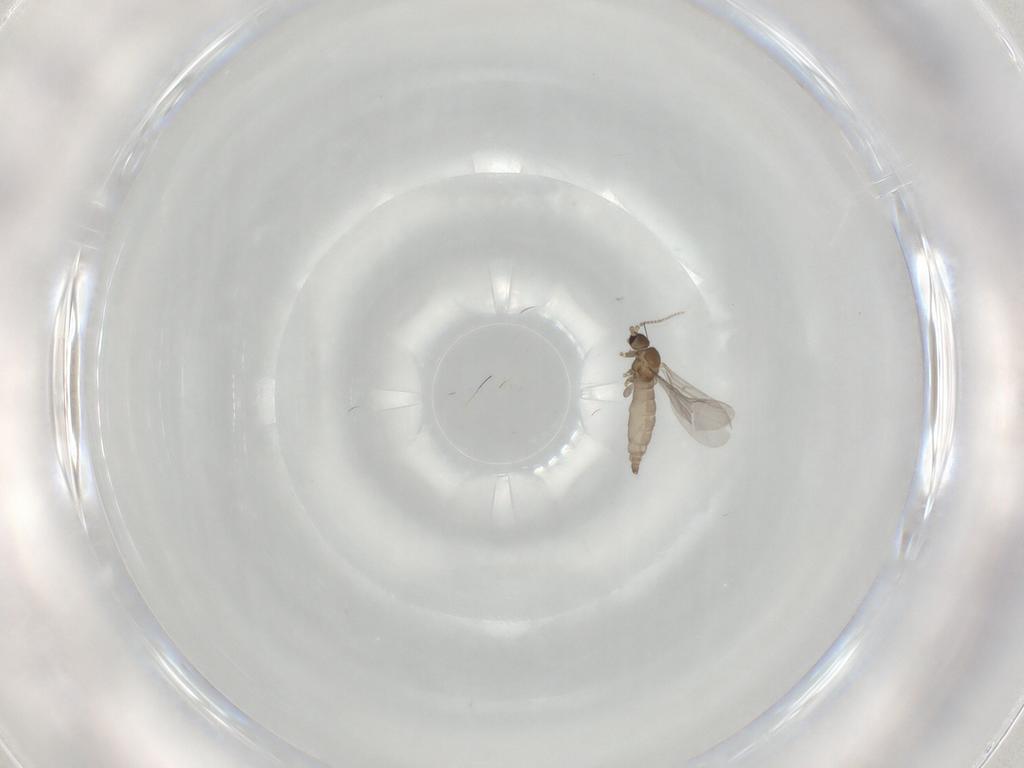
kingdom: Animalia
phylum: Arthropoda
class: Insecta
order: Diptera
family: Sciaridae
